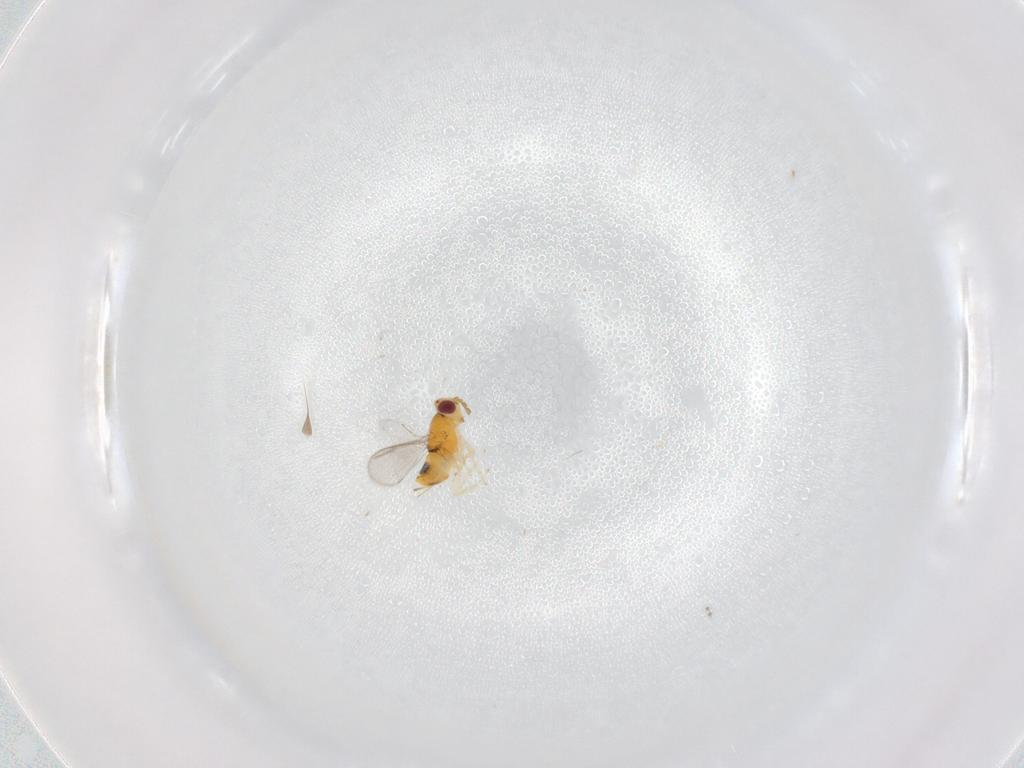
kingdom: Animalia
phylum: Arthropoda
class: Insecta
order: Hymenoptera
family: Aphelinidae
